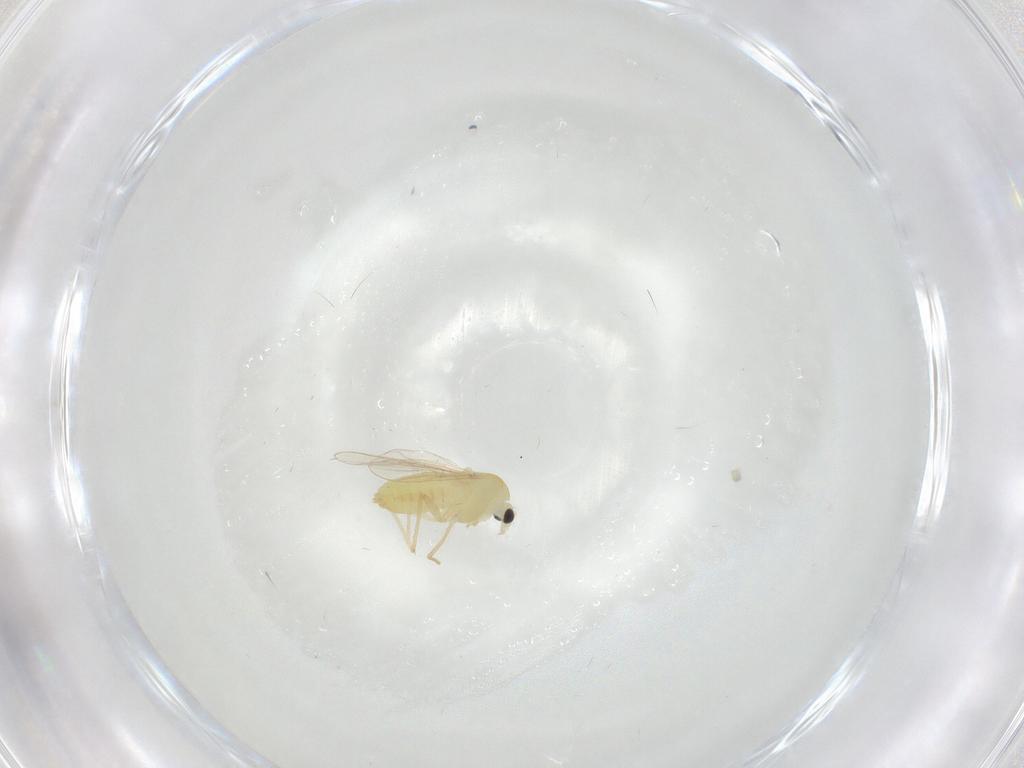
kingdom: Animalia
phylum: Arthropoda
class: Insecta
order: Diptera
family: Chironomidae
